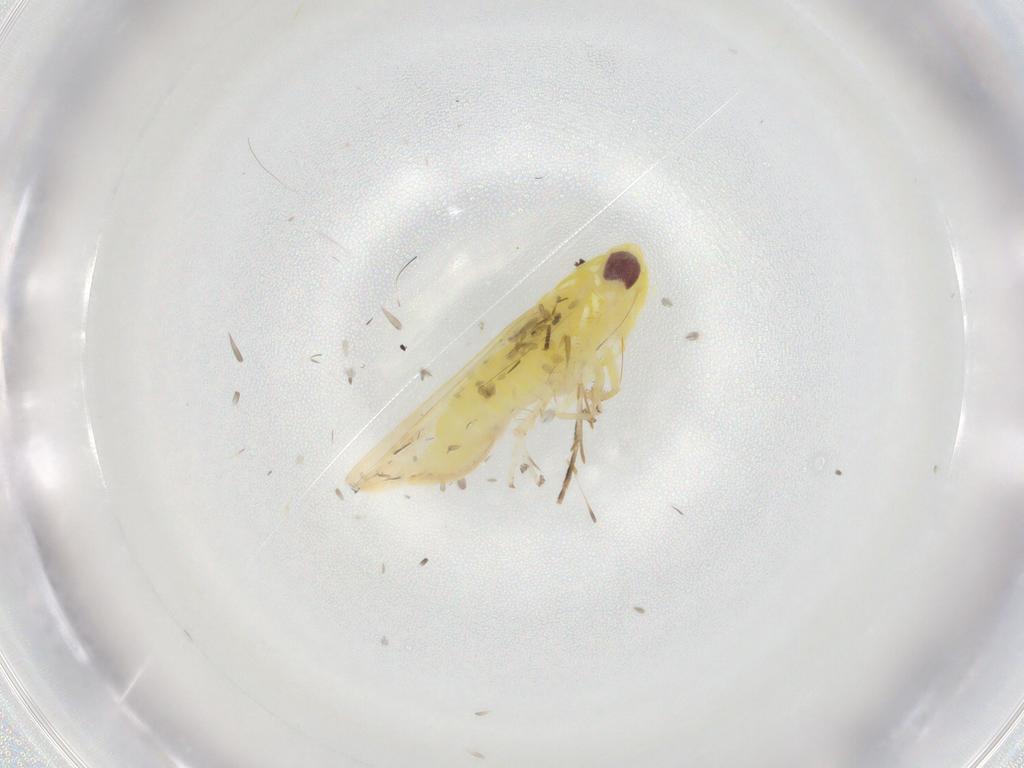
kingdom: Animalia
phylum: Arthropoda
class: Insecta
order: Hemiptera
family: Cicadellidae
